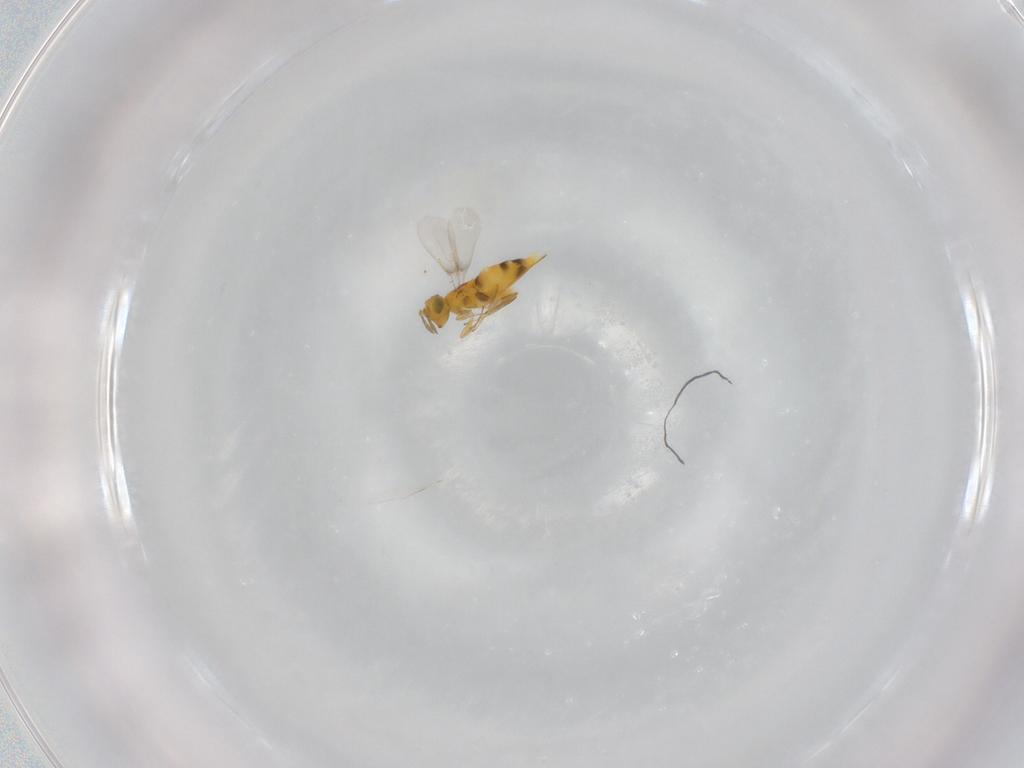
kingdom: Animalia
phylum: Arthropoda
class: Insecta
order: Hymenoptera
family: Aphelinidae
